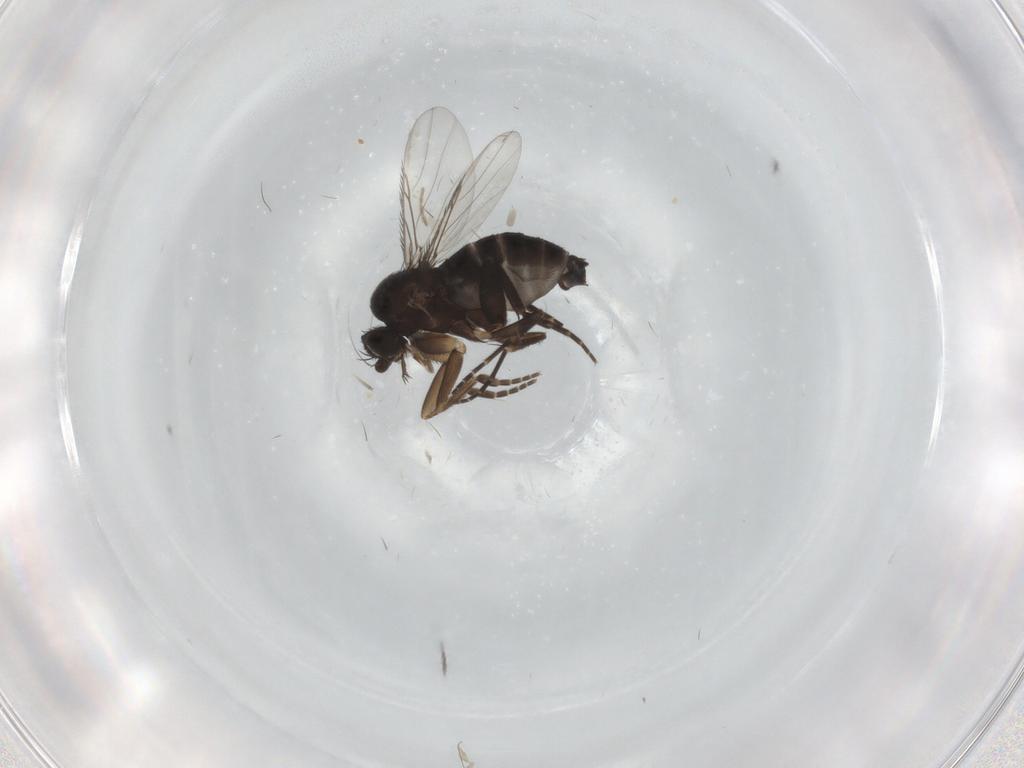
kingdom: Animalia
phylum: Arthropoda
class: Insecta
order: Diptera
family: Phoridae
